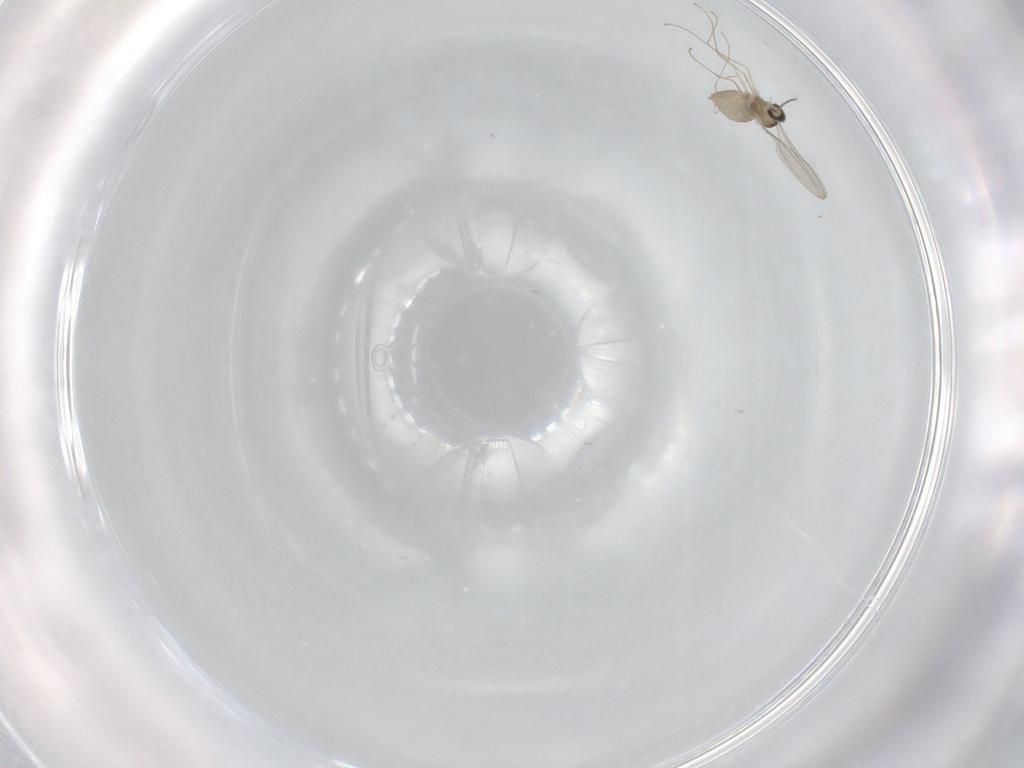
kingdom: Animalia
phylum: Arthropoda
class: Insecta
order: Diptera
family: Cecidomyiidae
